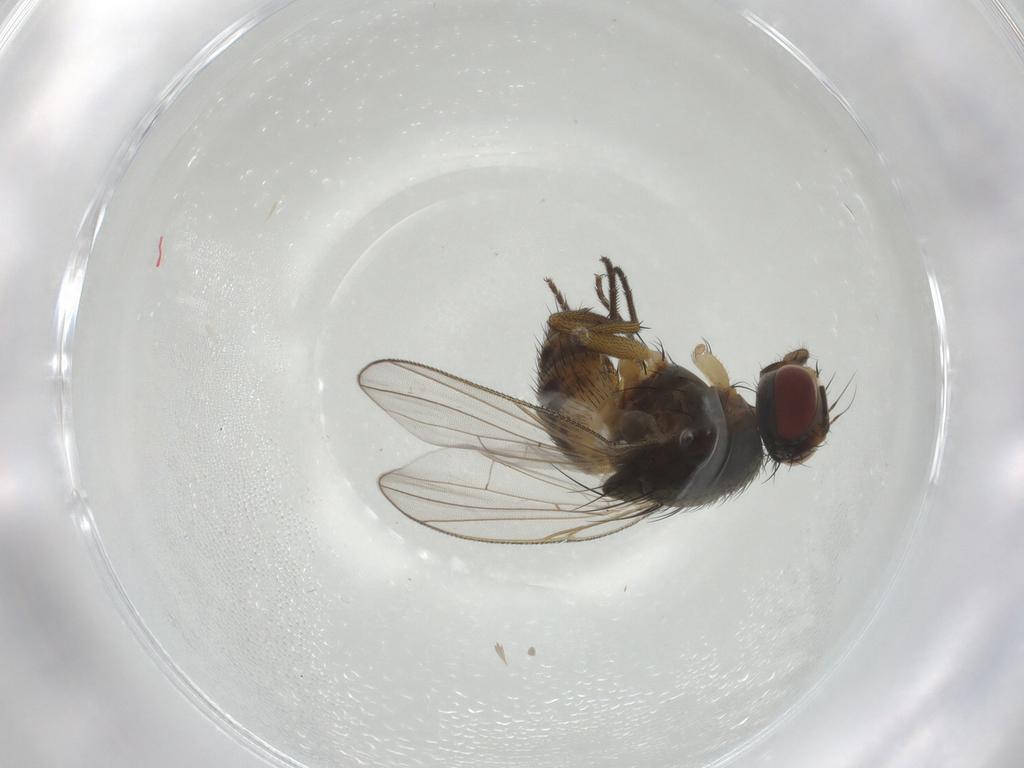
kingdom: Animalia
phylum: Arthropoda
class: Insecta
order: Diptera
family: Muscidae
